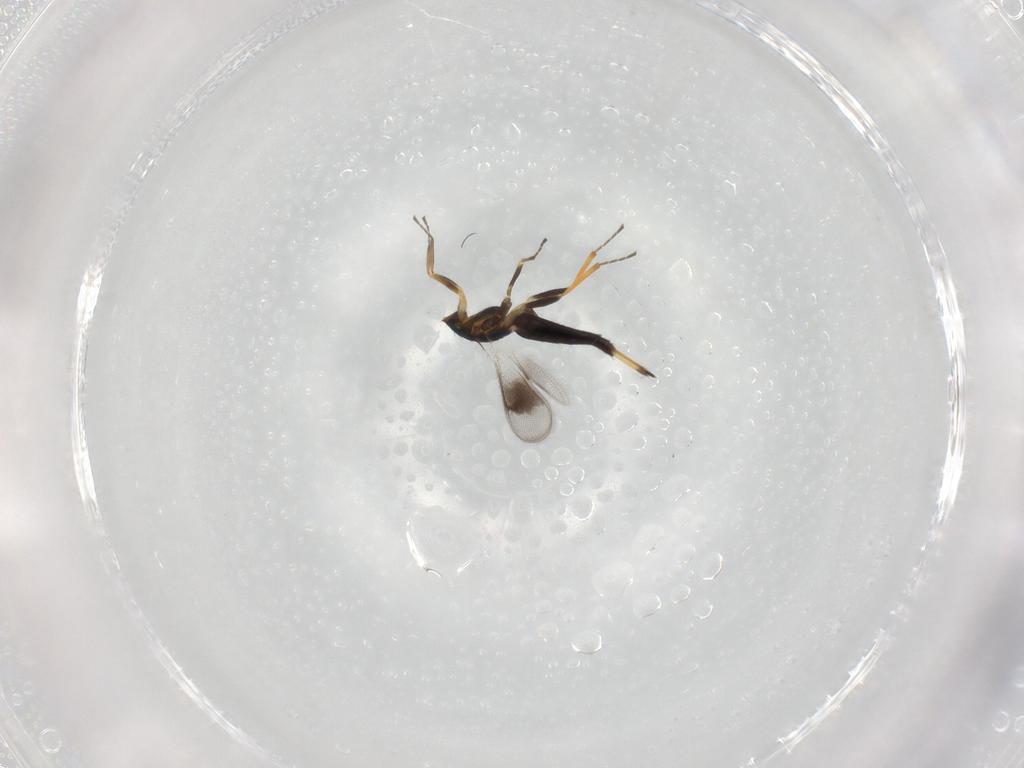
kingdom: Animalia
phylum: Arthropoda
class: Insecta
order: Hymenoptera
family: Eulophidae
